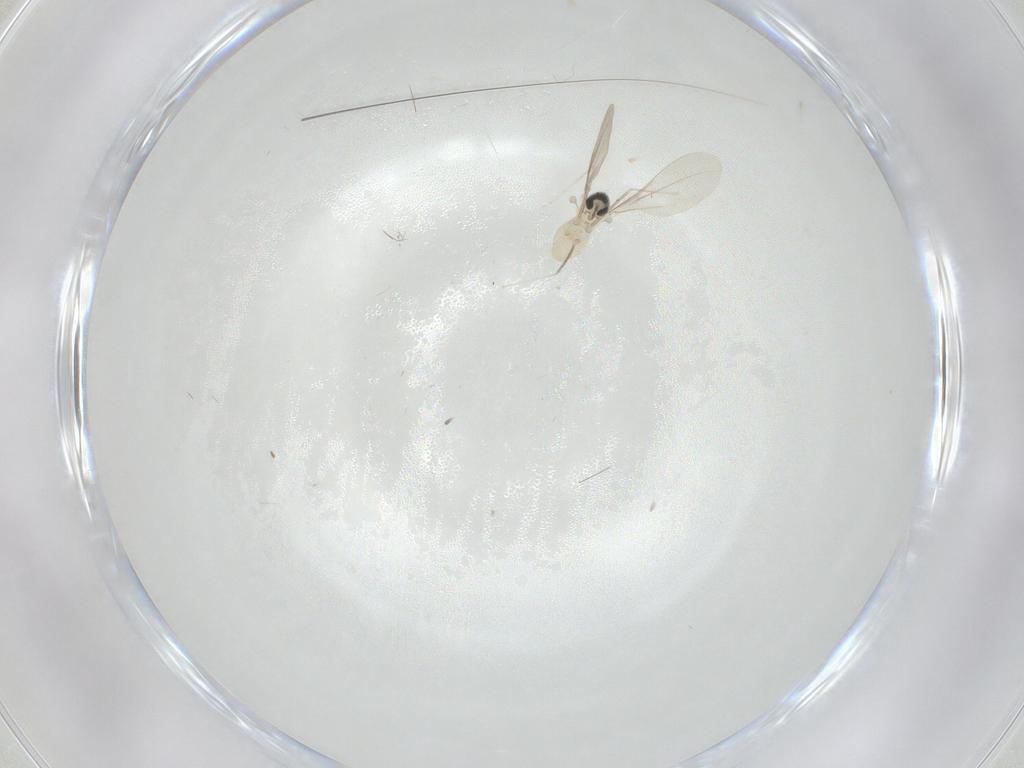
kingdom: Animalia
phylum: Arthropoda
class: Insecta
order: Diptera
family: Cecidomyiidae
